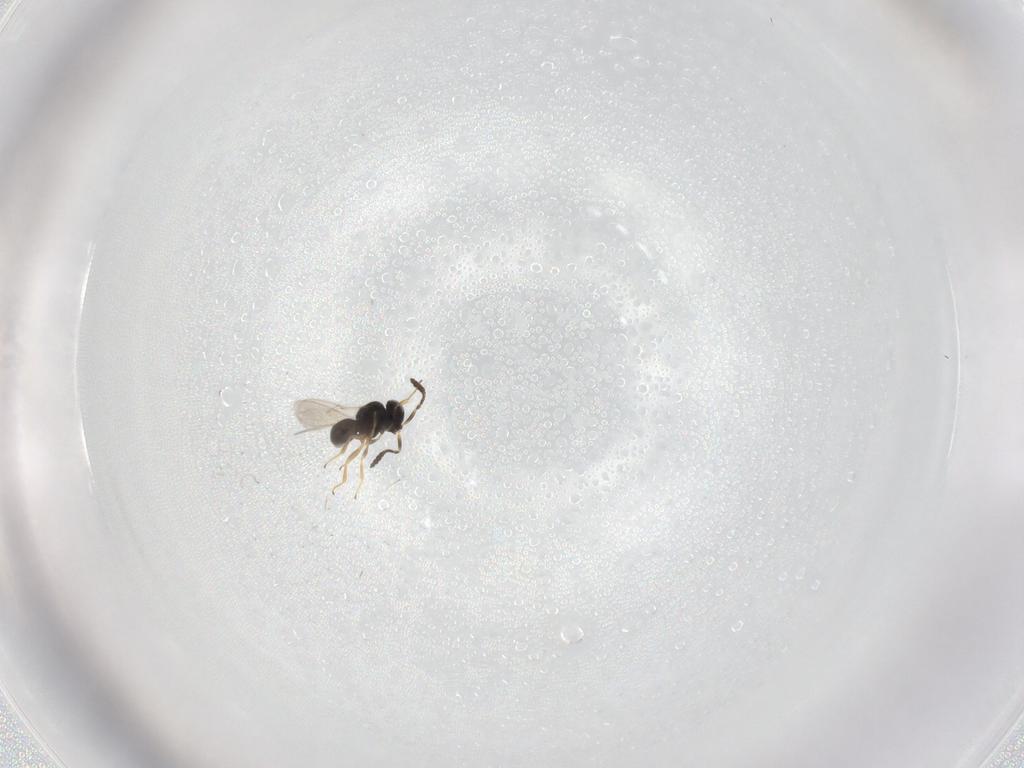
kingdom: Animalia
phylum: Arthropoda
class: Insecta
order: Hymenoptera
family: Scelionidae
